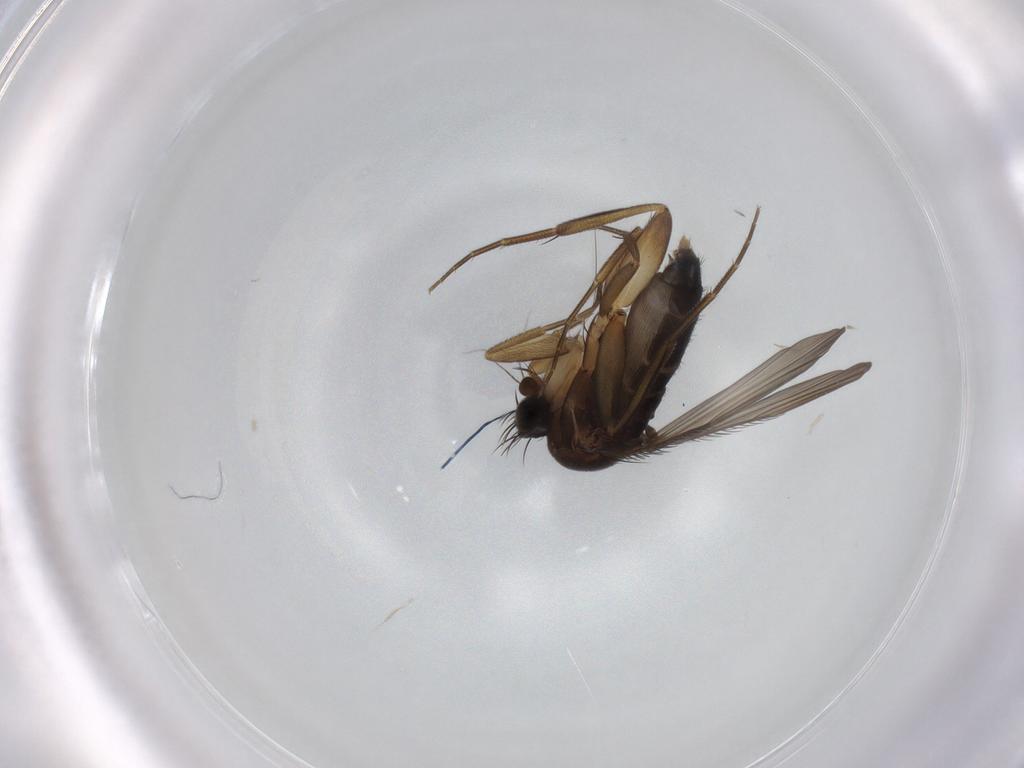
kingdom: Animalia
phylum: Arthropoda
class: Insecta
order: Diptera
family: Phoridae
